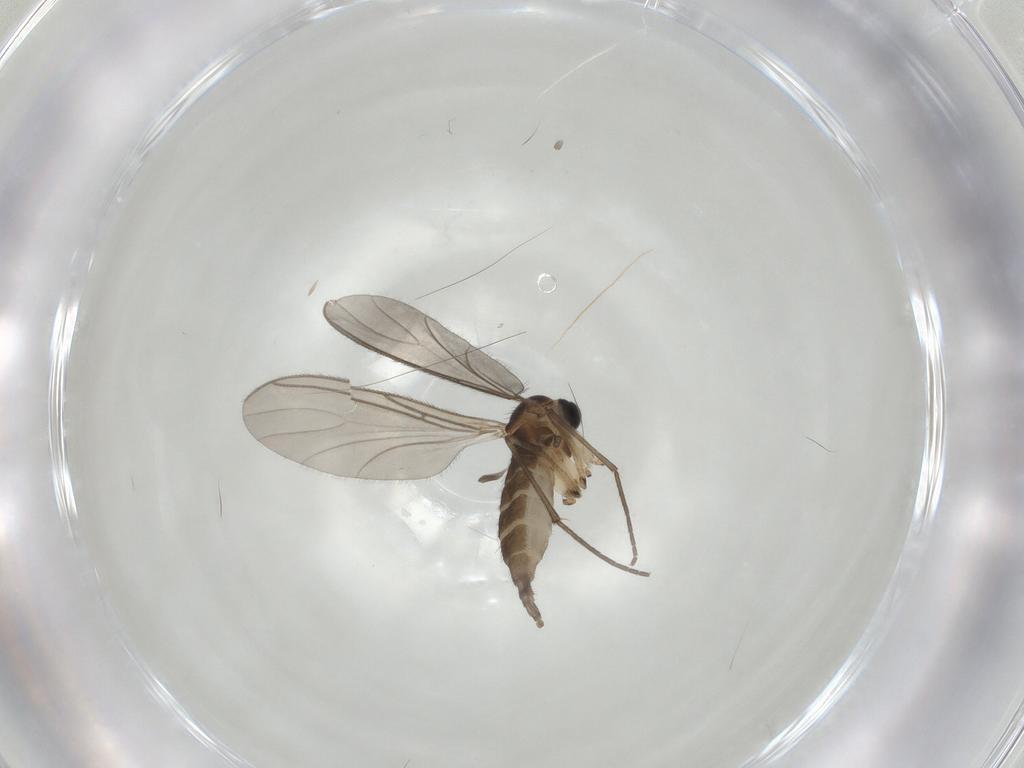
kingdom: Animalia
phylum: Arthropoda
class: Insecta
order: Diptera
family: Sciaridae
